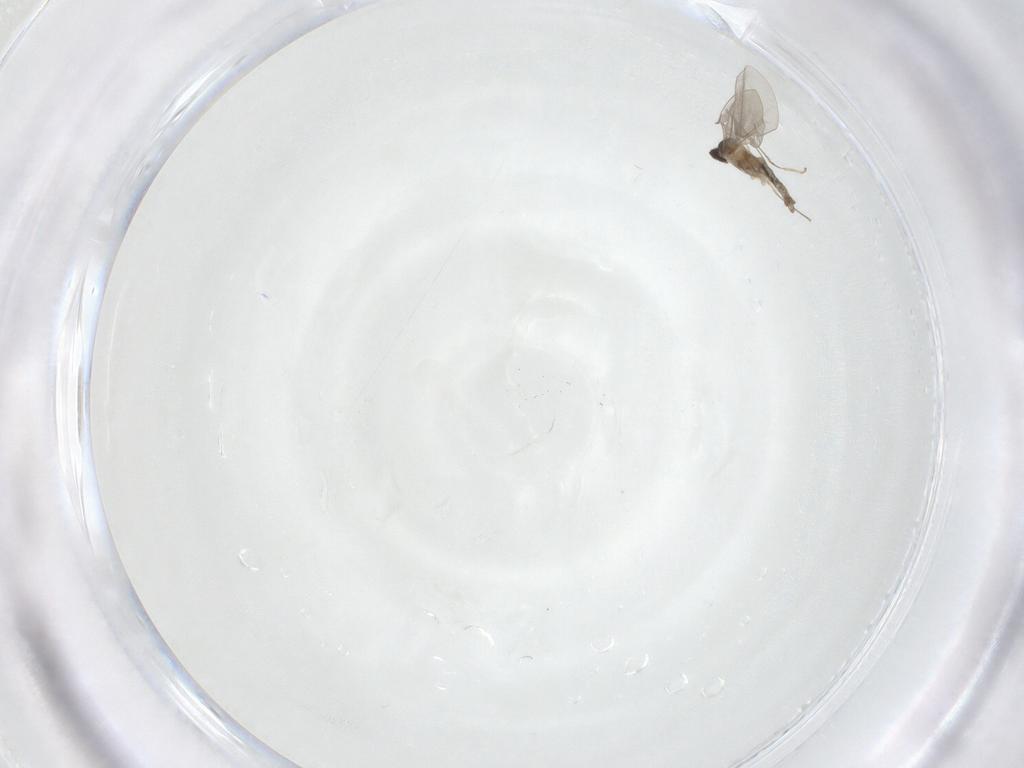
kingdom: Animalia
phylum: Arthropoda
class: Insecta
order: Diptera
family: Cecidomyiidae
